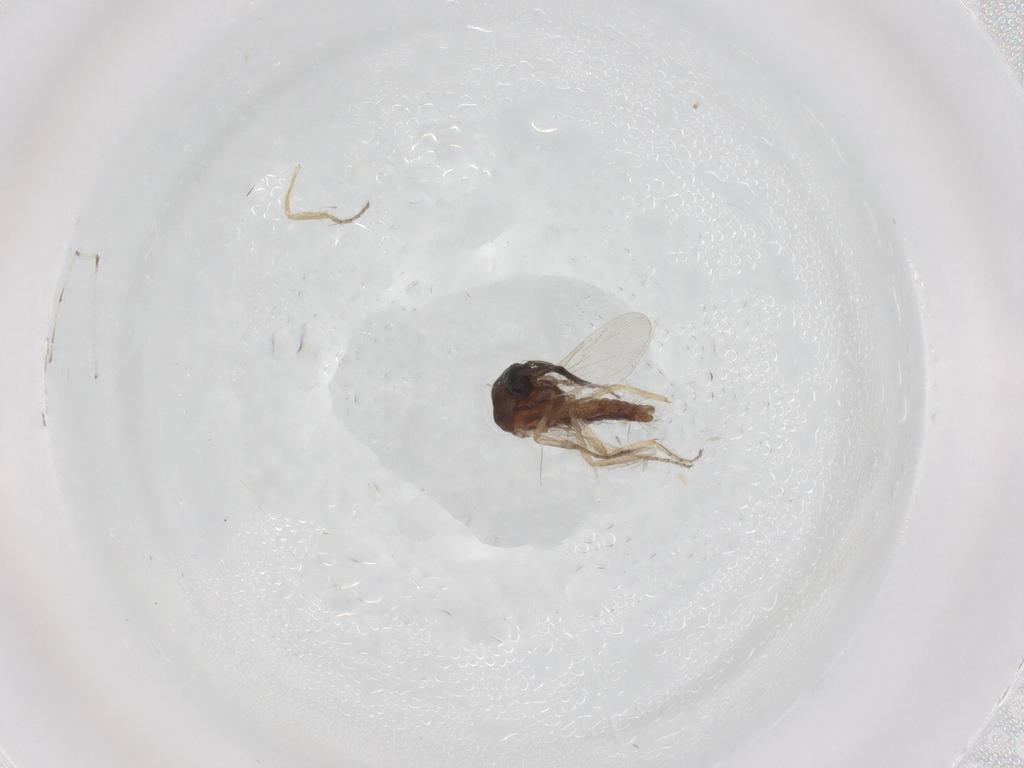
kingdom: Animalia
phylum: Arthropoda
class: Insecta
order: Diptera
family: Ceratopogonidae
